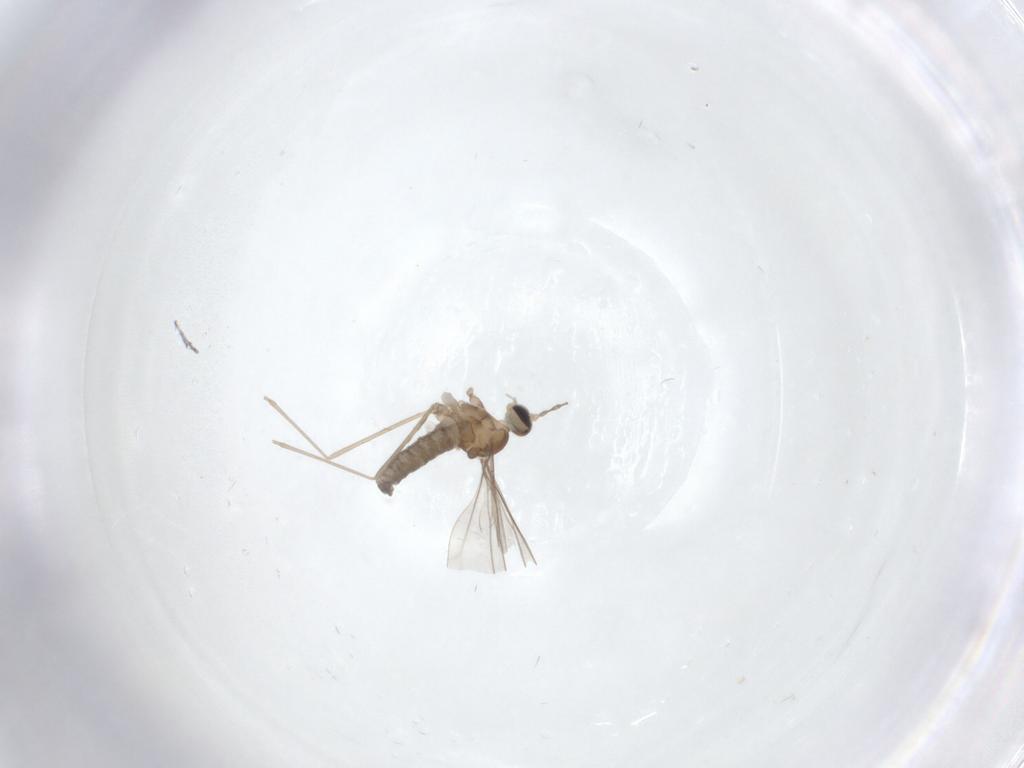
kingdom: Animalia
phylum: Arthropoda
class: Insecta
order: Diptera
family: Cecidomyiidae
